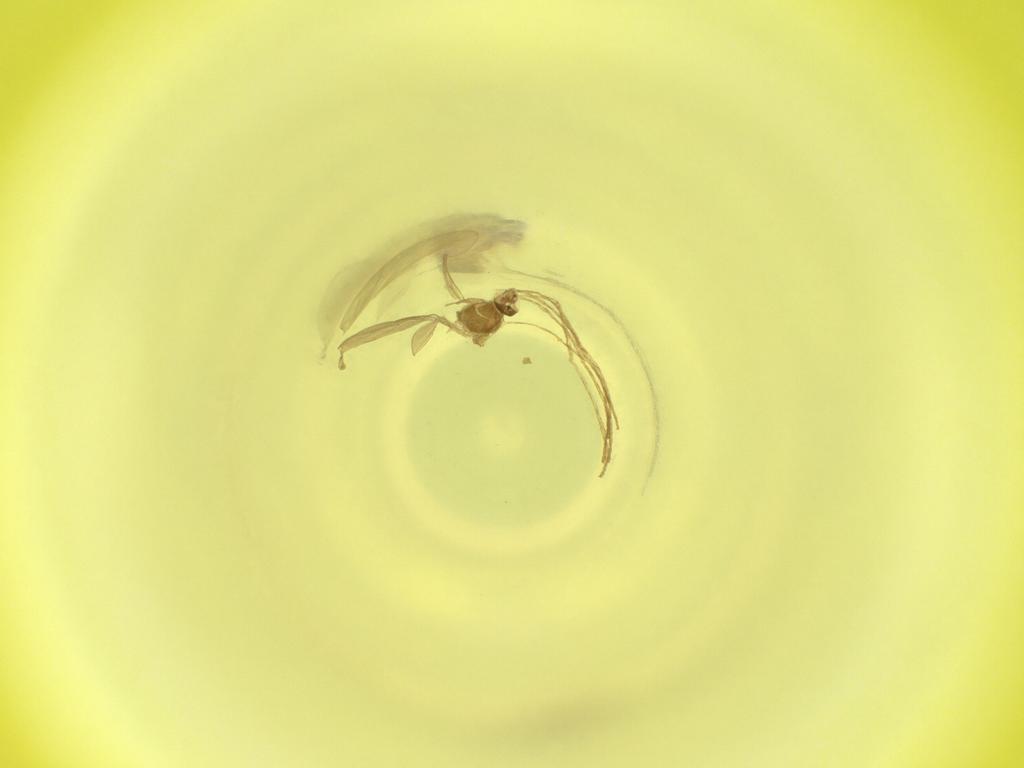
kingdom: Animalia
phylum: Arthropoda
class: Insecta
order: Diptera
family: Cecidomyiidae
